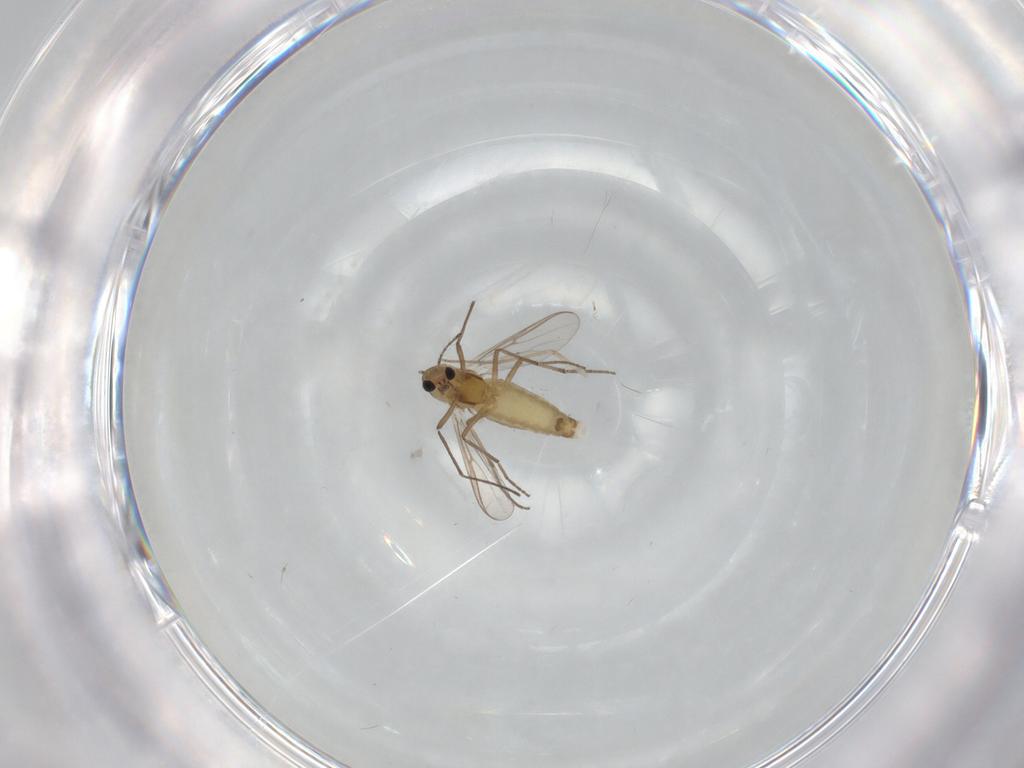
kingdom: Animalia
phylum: Arthropoda
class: Insecta
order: Diptera
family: Chironomidae
